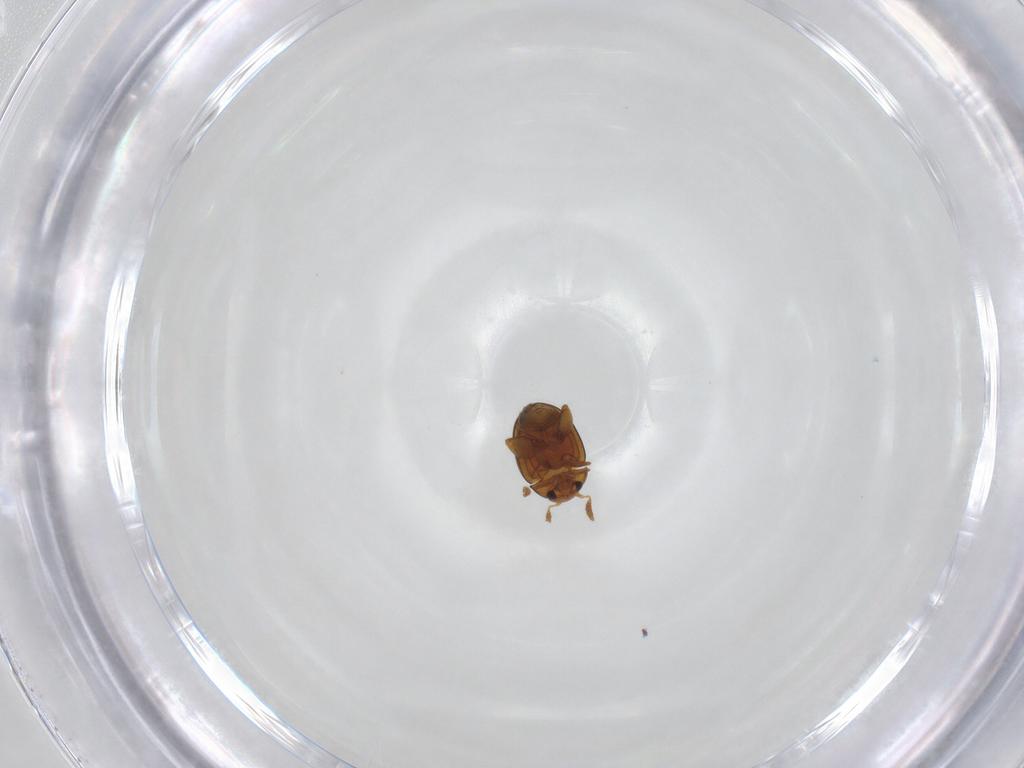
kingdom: Animalia
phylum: Arthropoda
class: Insecta
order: Coleoptera
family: Chrysomelidae
